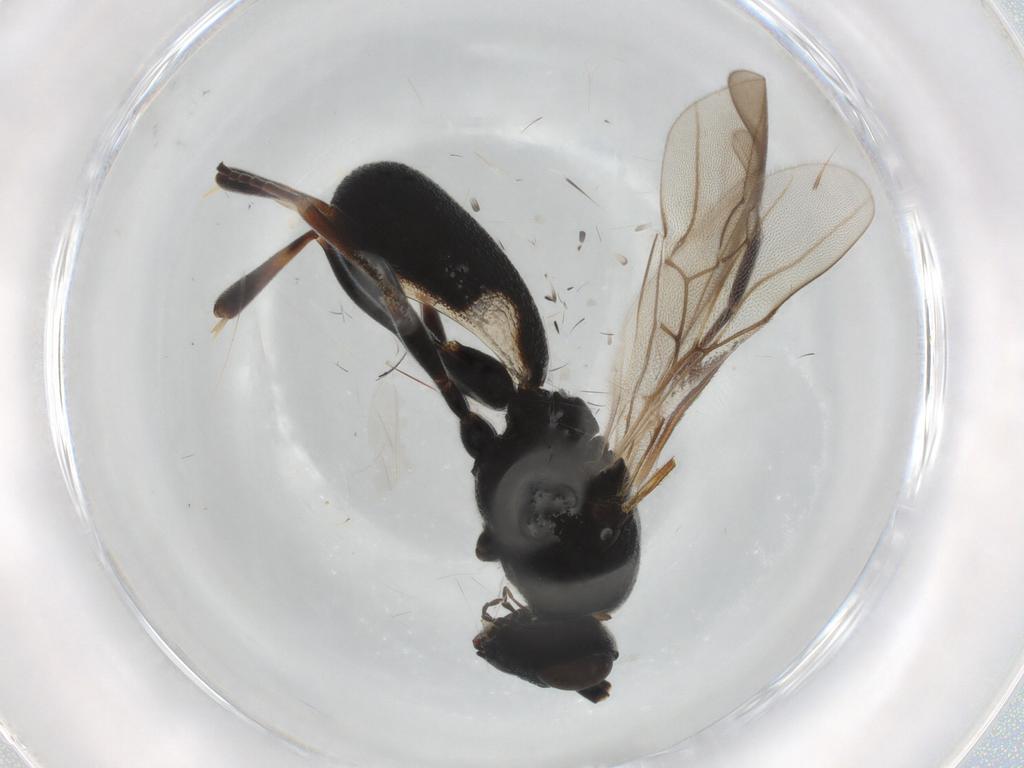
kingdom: Animalia
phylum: Arthropoda
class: Insecta
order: Hymenoptera
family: Braconidae
